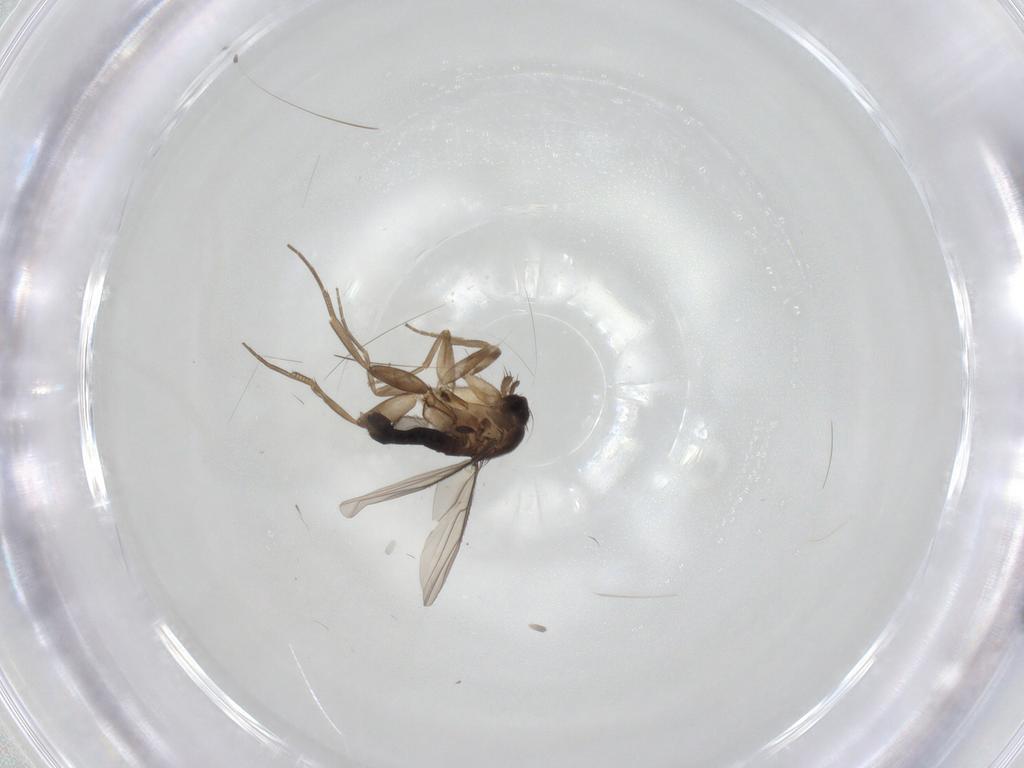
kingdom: Animalia
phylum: Arthropoda
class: Insecta
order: Diptera
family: Phoridae
